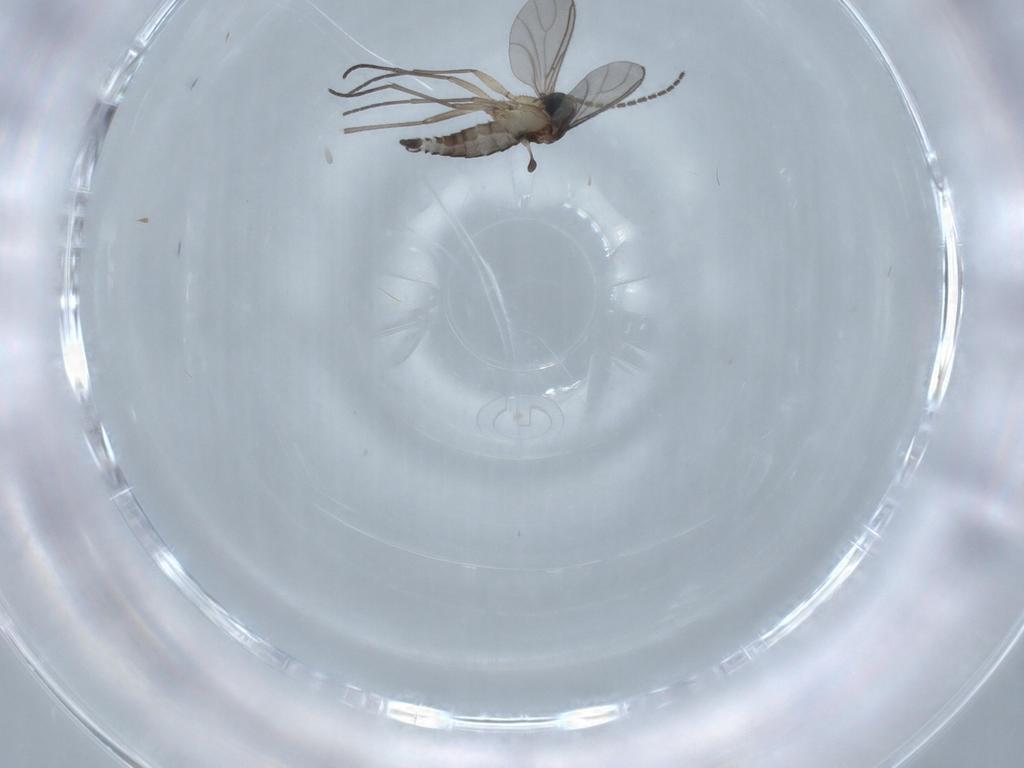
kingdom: Animalia
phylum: Arthropoda
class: Insecta
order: Diptera
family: Sciaridae
